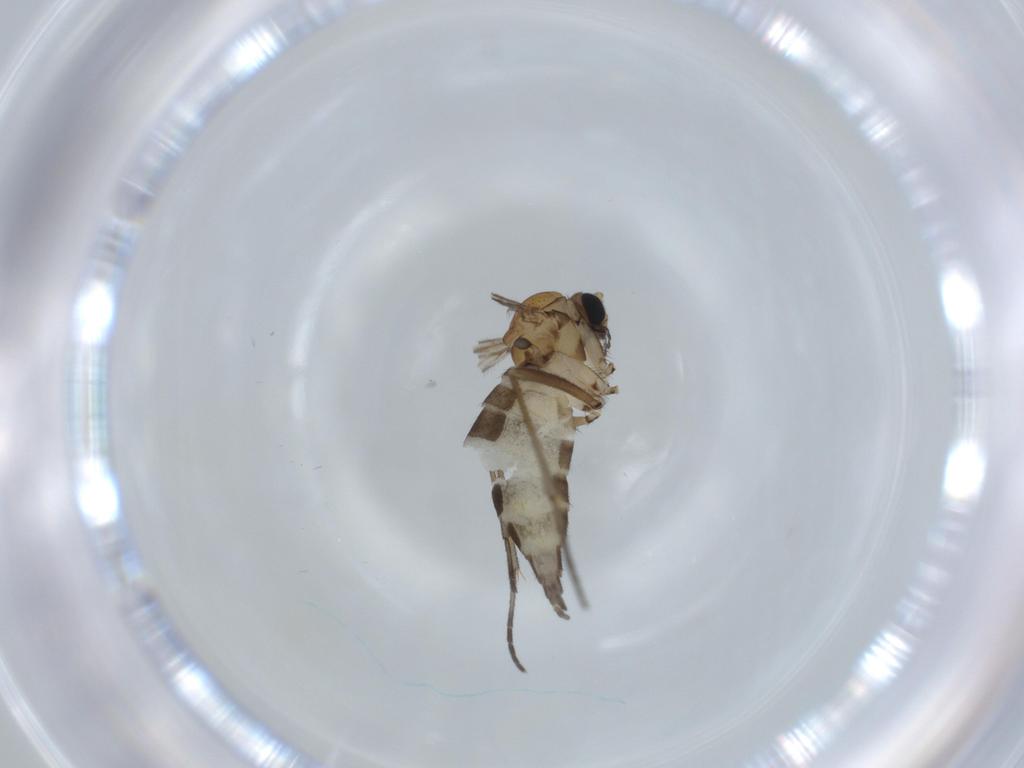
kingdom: Animalia
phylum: Arthropoda
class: Insecta
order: Diptera
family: Sciaridae
